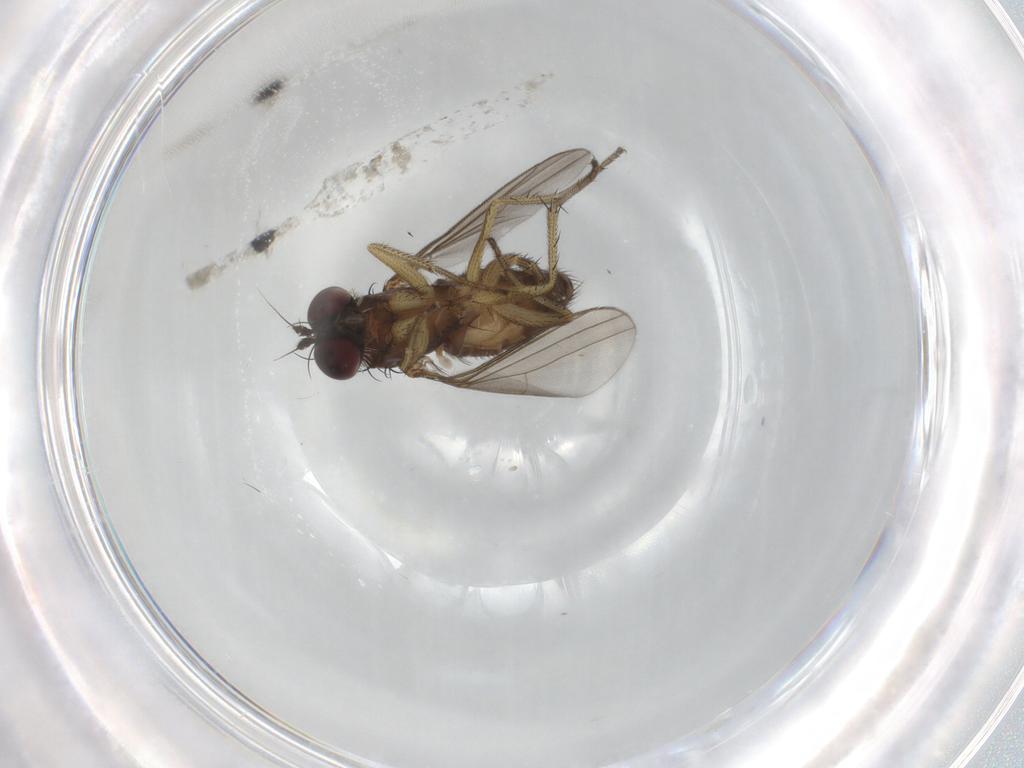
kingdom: Animalia
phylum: Arthropoda
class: Insecta
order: Diptera
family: Dolichopodidae
